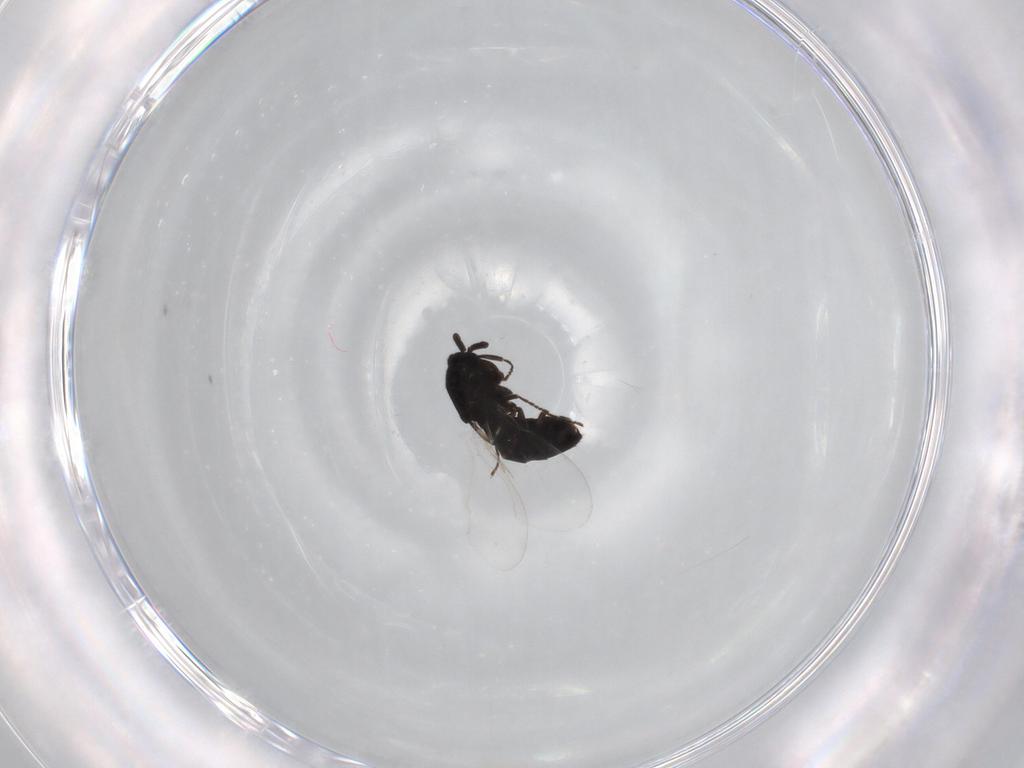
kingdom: Animalia
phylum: Arthropoda
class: Insecta
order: Diptera
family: Scatopsidae
